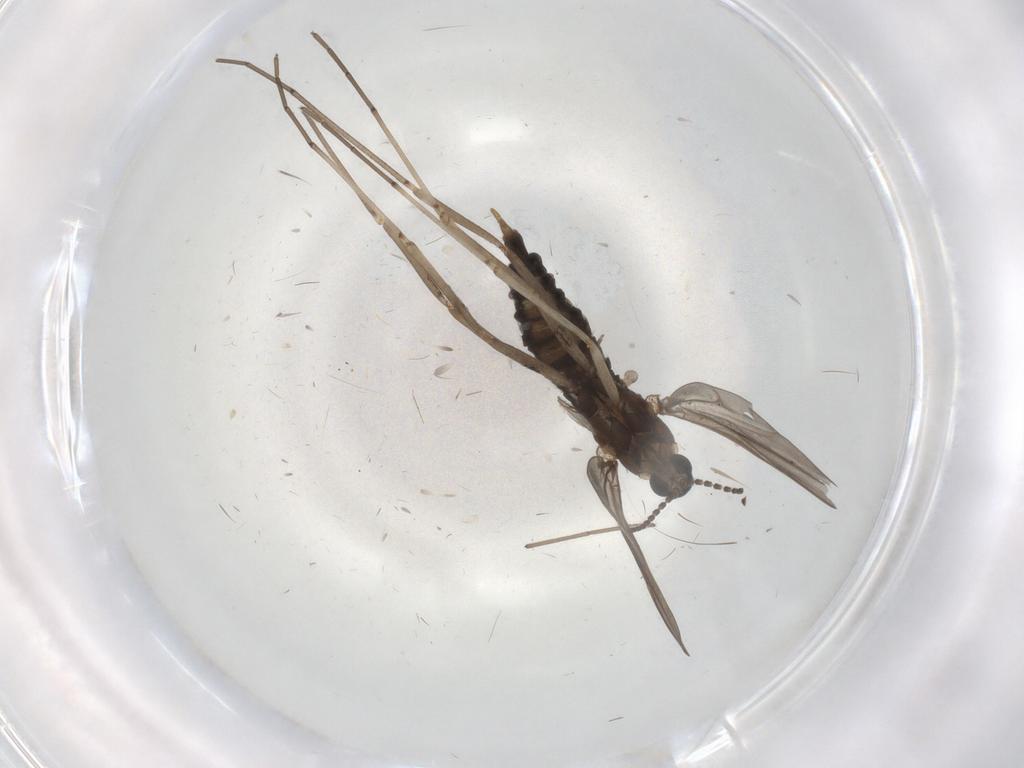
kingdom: Animalia
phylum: Arthropoda
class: Insecta
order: Diptera
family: Cecidomyiidae
